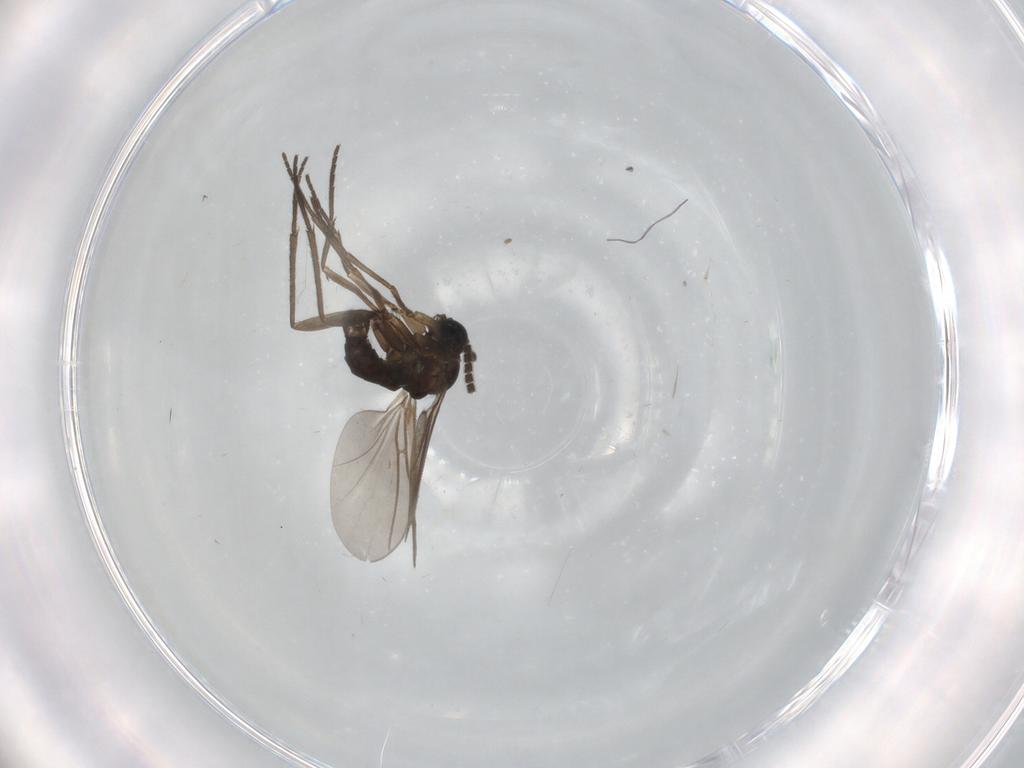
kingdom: Animalia
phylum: Arthropoda
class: Insecta
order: Diptera
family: Sciaridae
